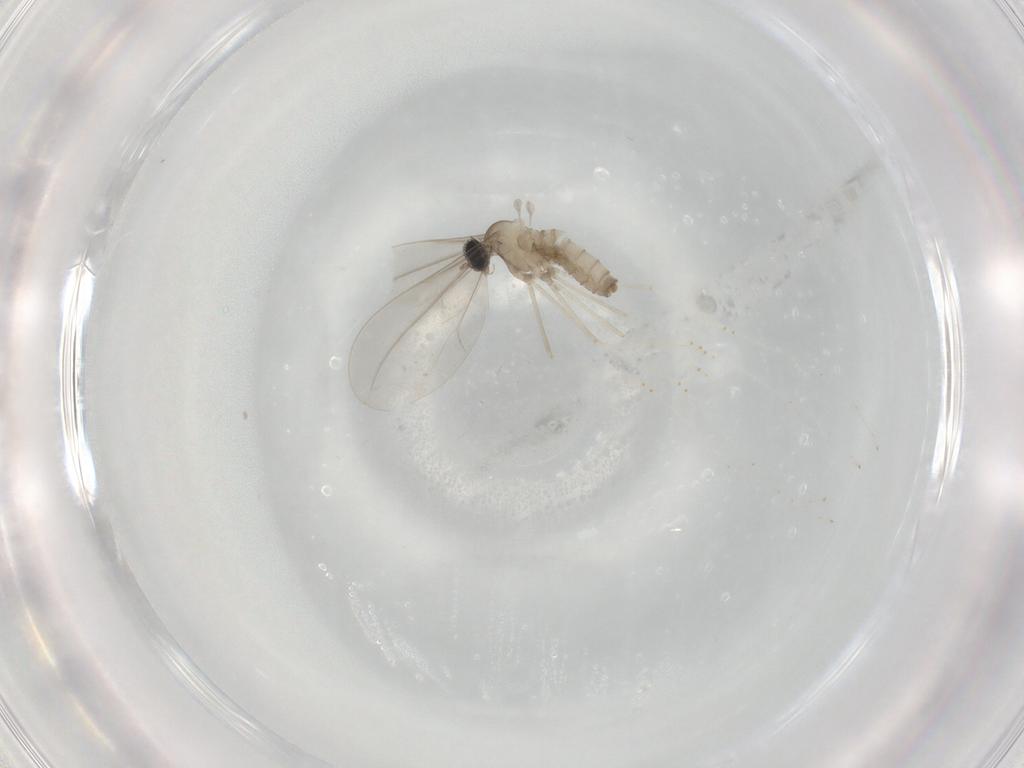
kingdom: Animalia
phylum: Arthropoda
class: Insecta
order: Diptera
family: Cecidomyiidae
